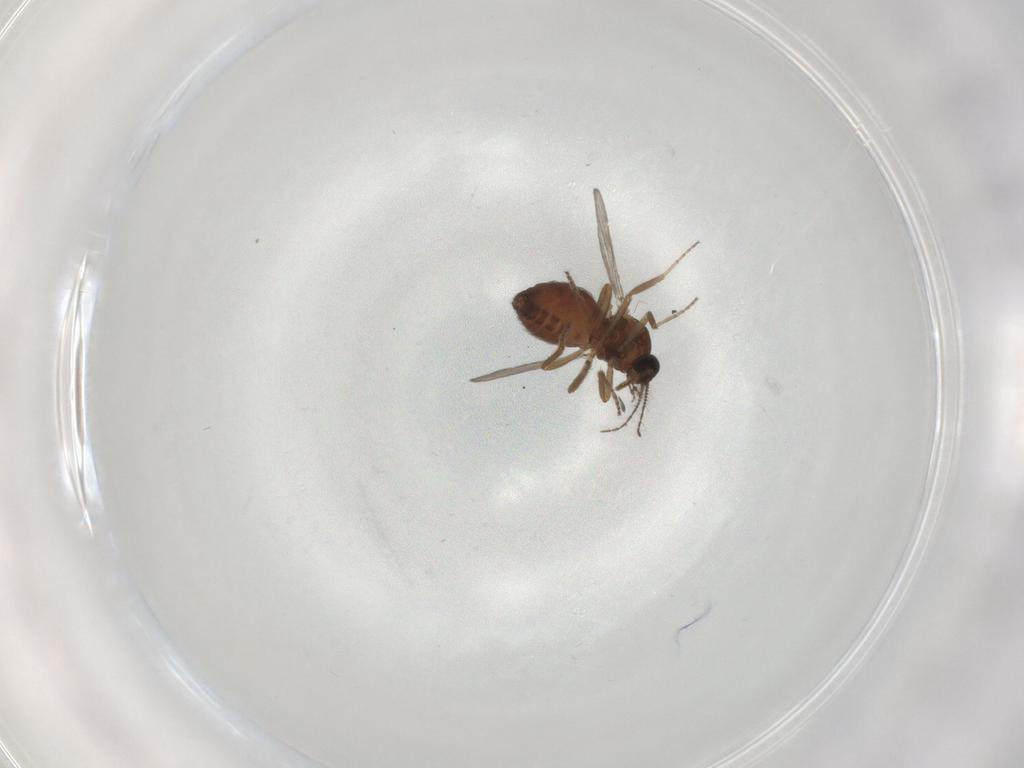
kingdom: Animalia
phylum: Arthropoda
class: Insecta
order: Diptera
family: Ceratopogonidae
